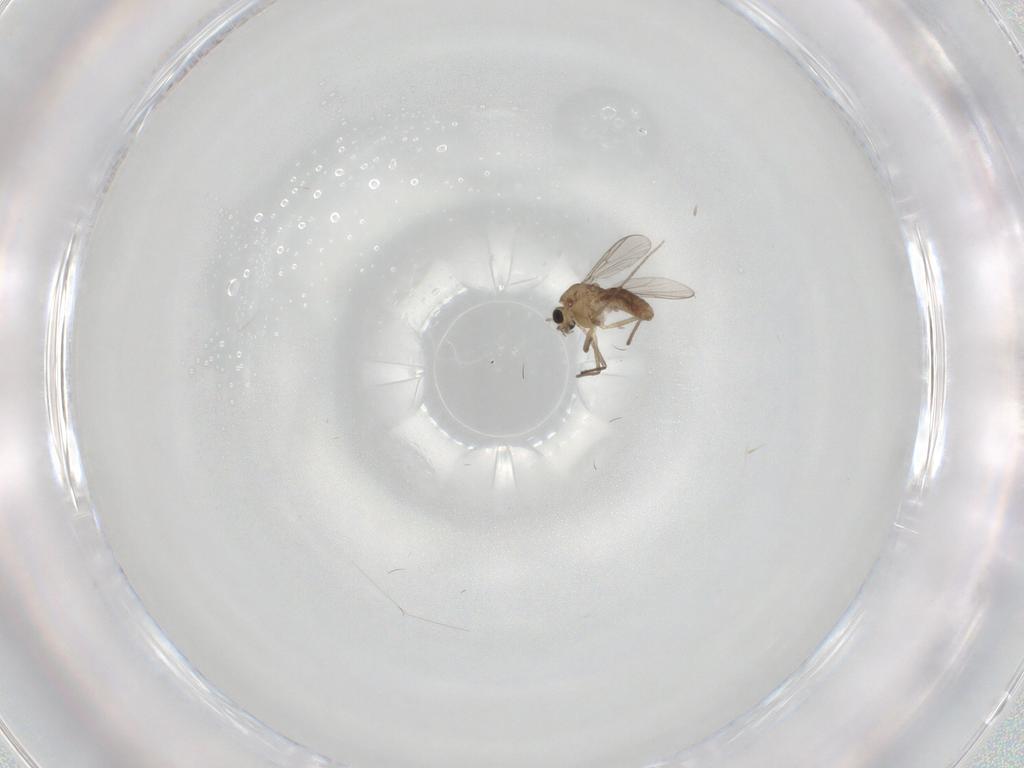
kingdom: Animalia
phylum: Arthropoda
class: Insecta
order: Diptera
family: Chironomidae
